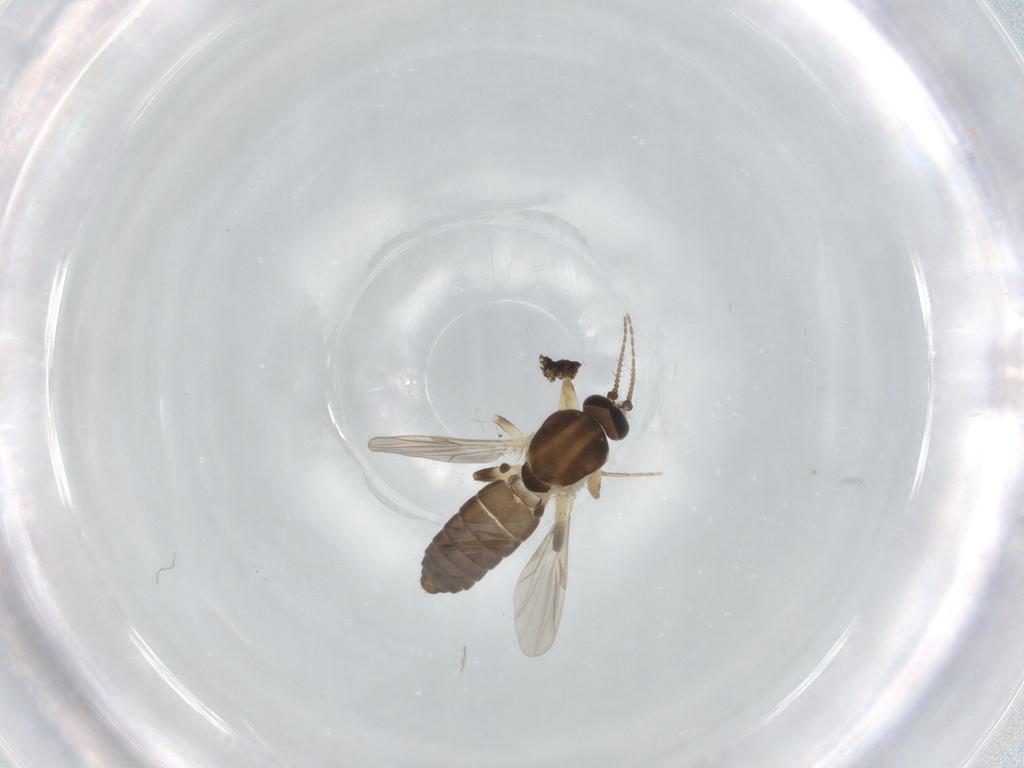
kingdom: Animalia
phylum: Arthropoda
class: Insecta
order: Diptera
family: Ceratopogonidae
